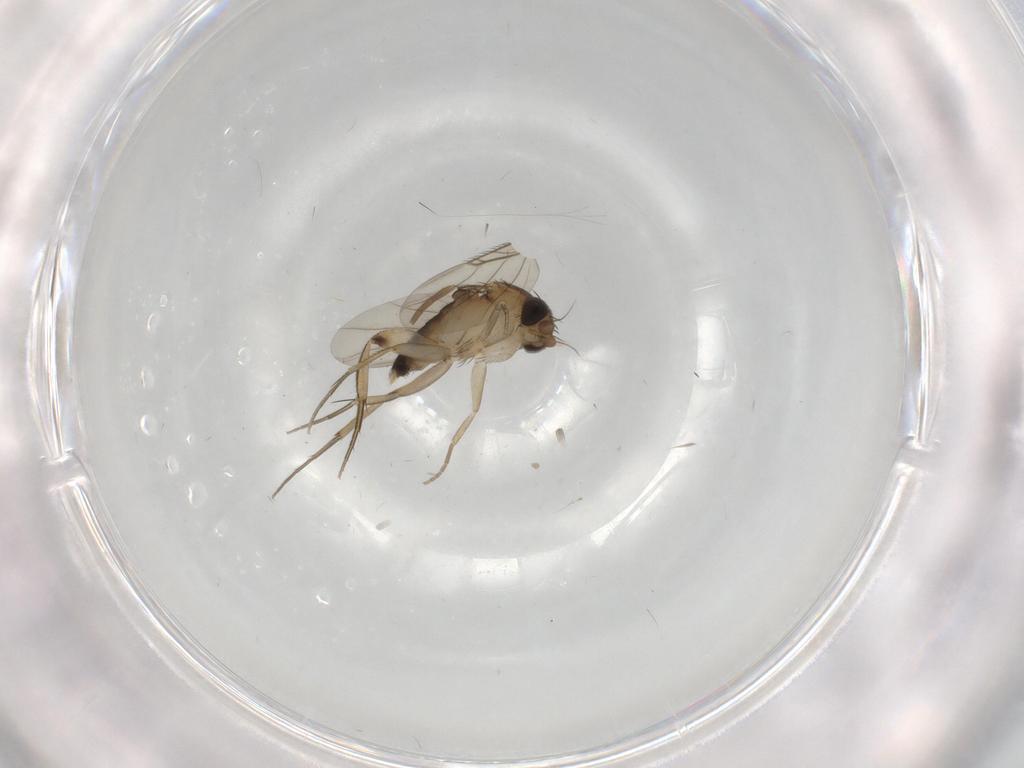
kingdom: Animalia
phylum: Arthropoda
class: Insecta
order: Diptera
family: Phoridae
